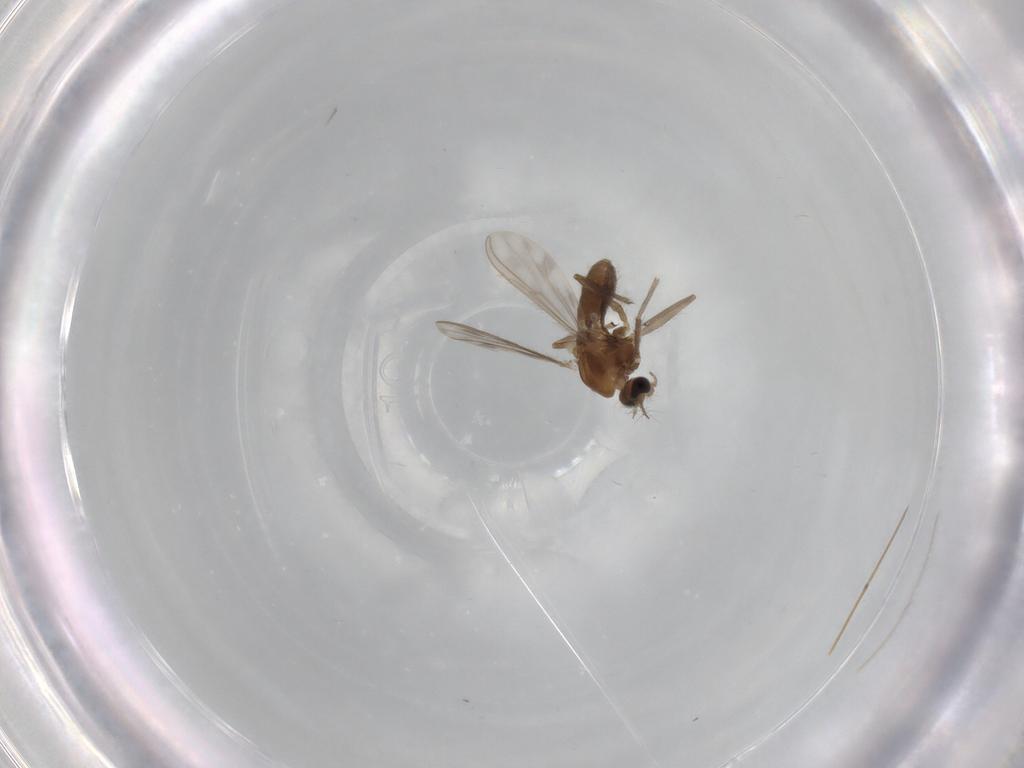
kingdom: Animalia
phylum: Arthropoda
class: Insecta
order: Diptera
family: Chironomidae
